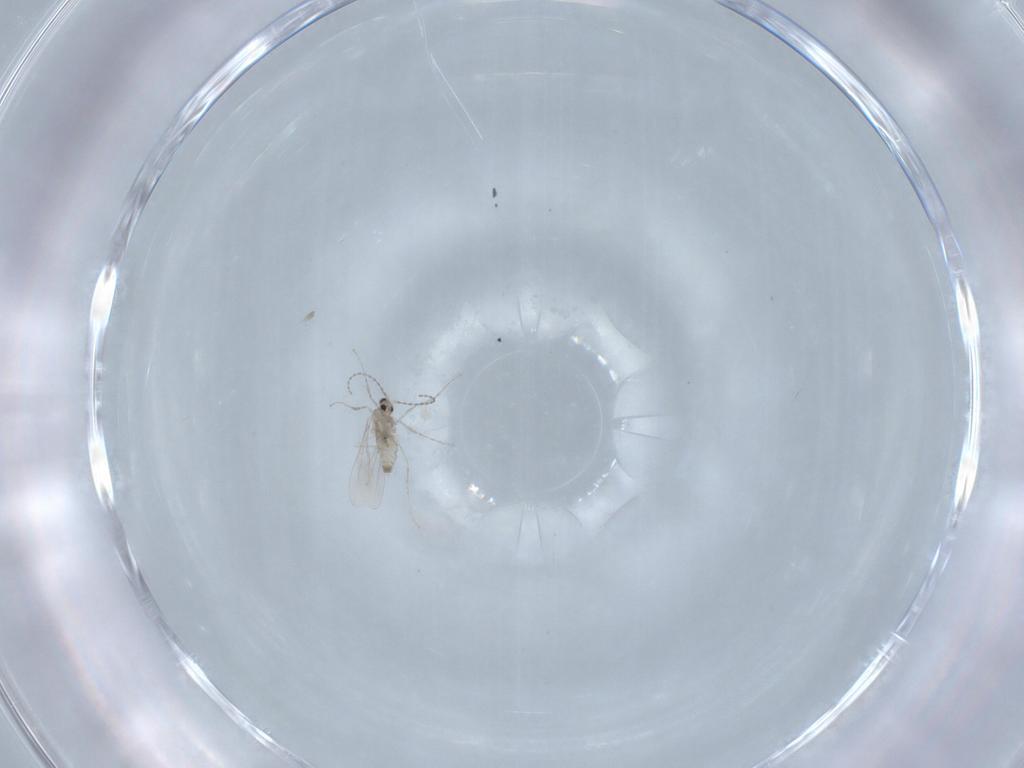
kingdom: Animalia
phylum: Arthropoda
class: Insecta
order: Diptera
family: Cecidomyiidae
